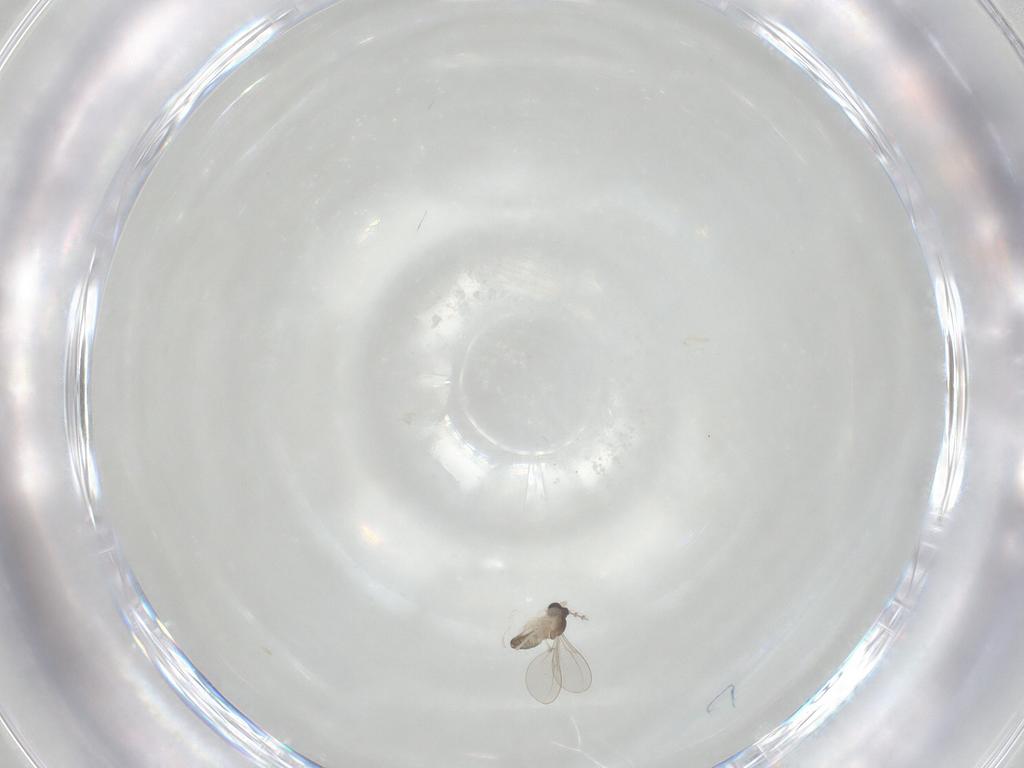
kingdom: Animalia
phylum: Arthropoda
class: Insecta
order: Diptera
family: Cecidomyiidae
